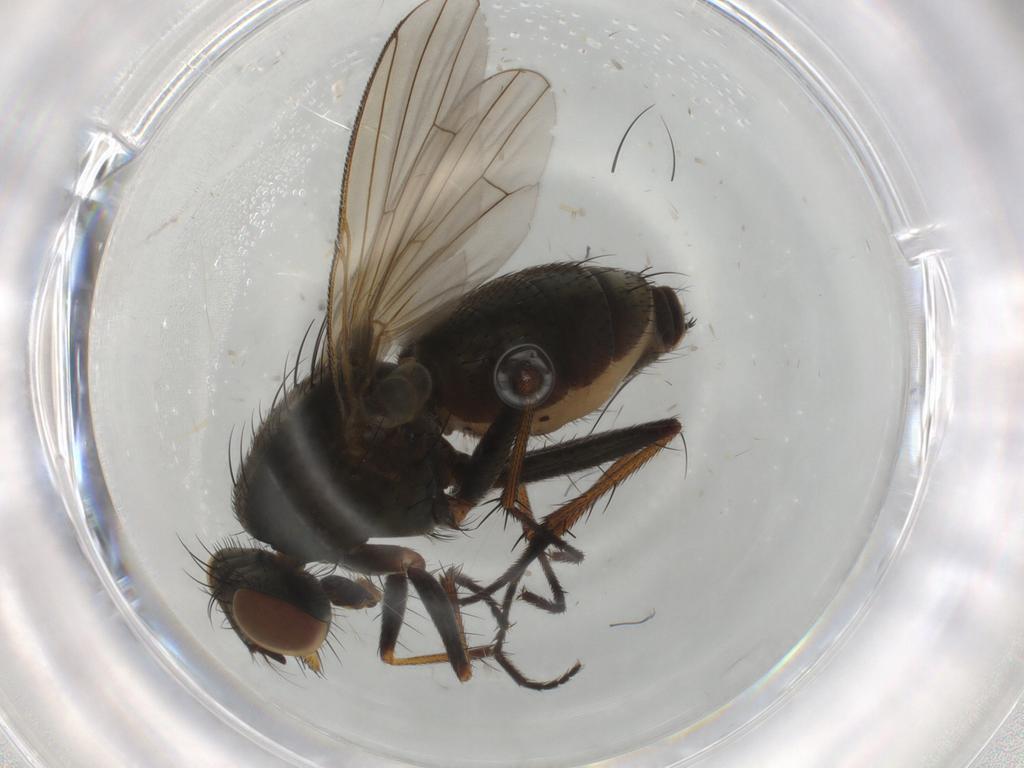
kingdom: Animalia
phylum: Arthropoda
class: Insecta
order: Diptera
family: Muscidae
